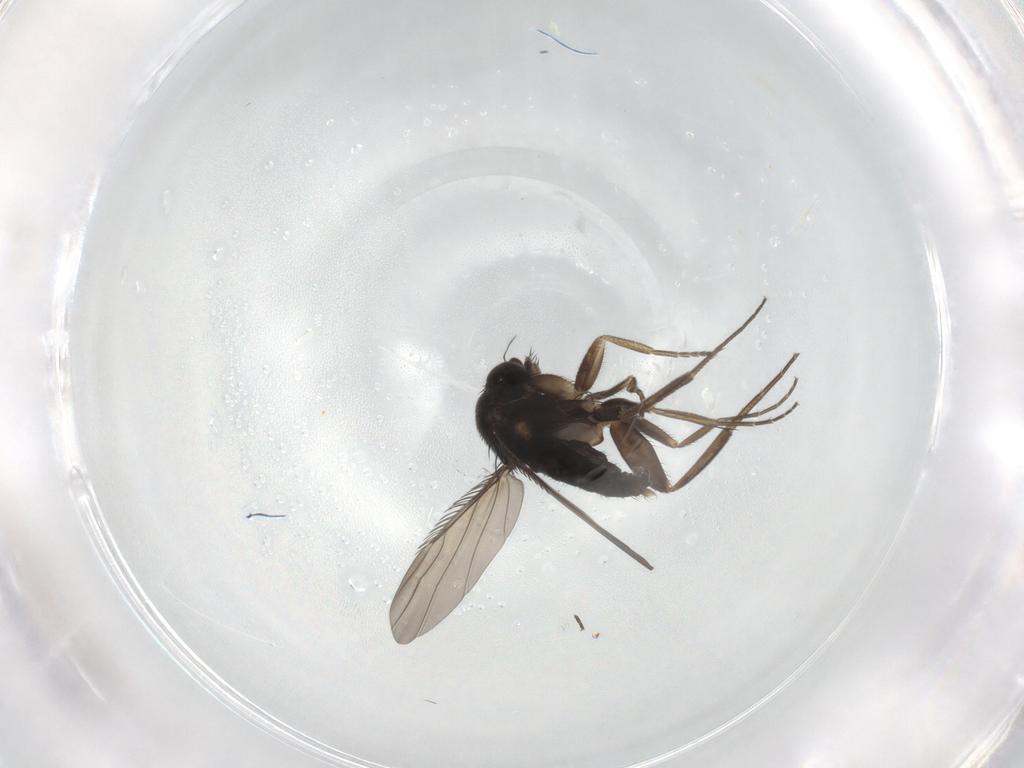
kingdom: Animalia
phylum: Arthropoda
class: Insecta
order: Diptera
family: Phoridae
